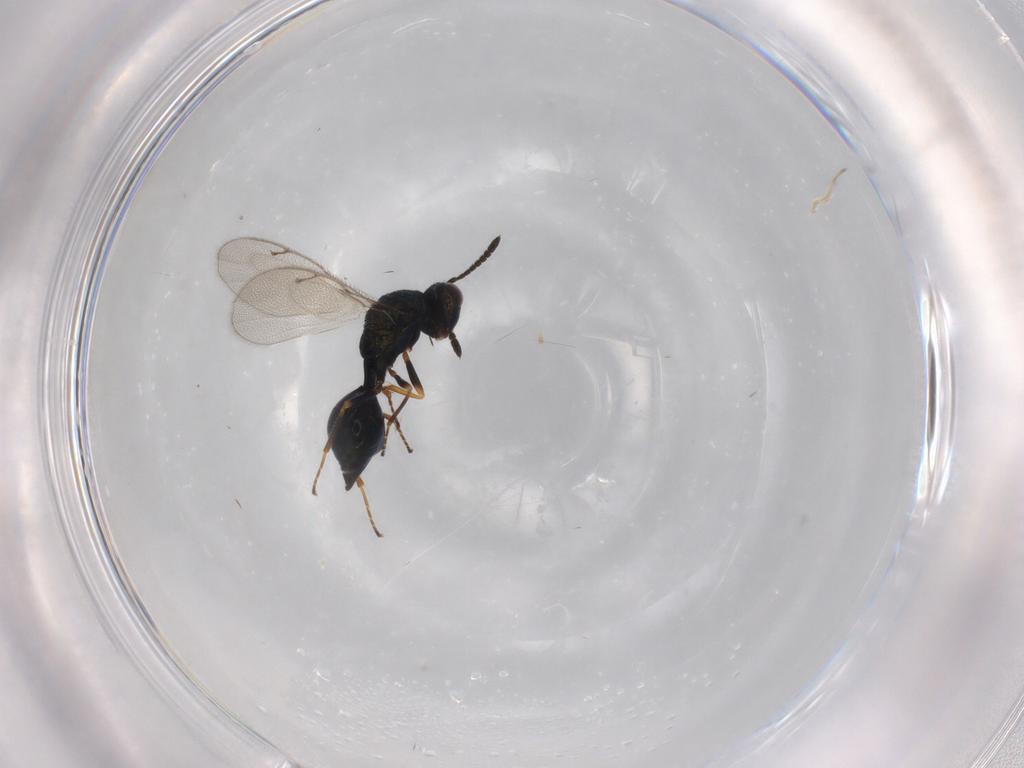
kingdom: Animalia
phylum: Arthropoda
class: Insecta
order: Hymenoptera
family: Pteromalidae
